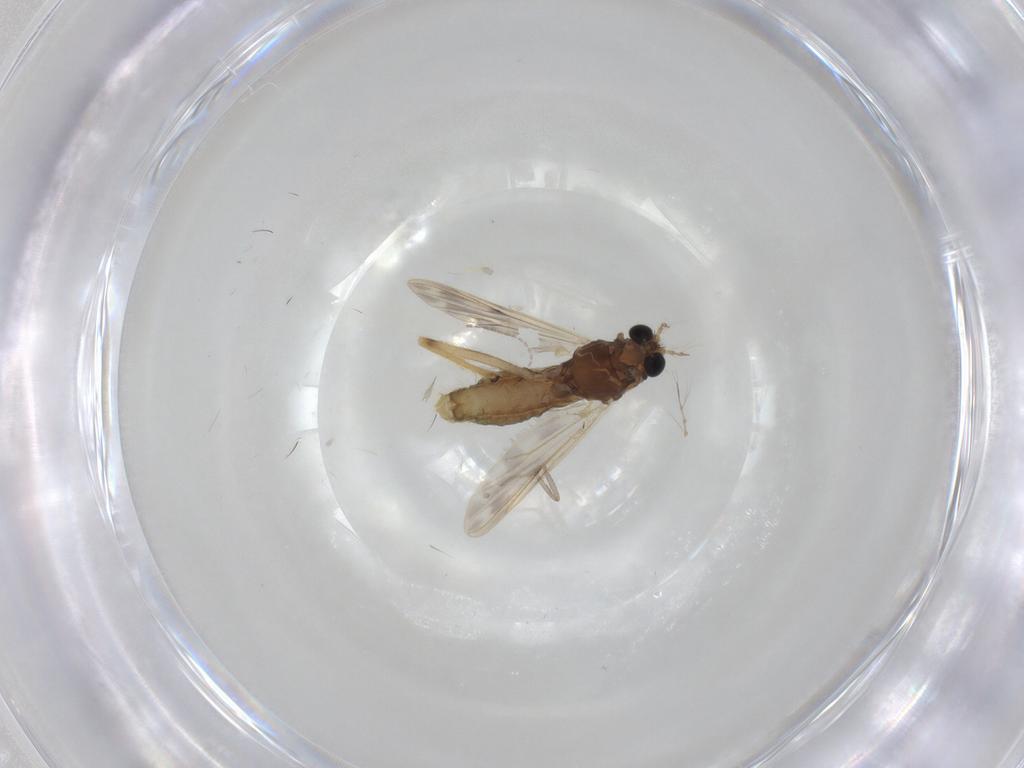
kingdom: Animalia
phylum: Arthropoda
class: Insecta
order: Diptera
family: Chironomidae
